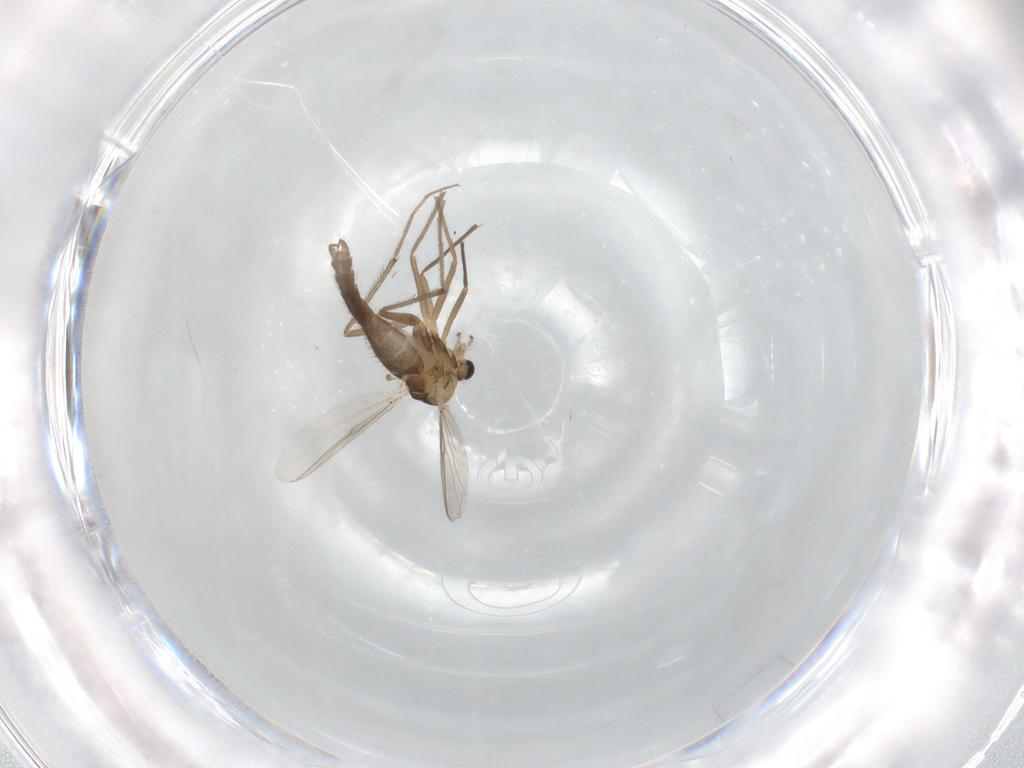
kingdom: Animalia
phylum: Arthropoda
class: Insecta
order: Diptera
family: Chironomidae
